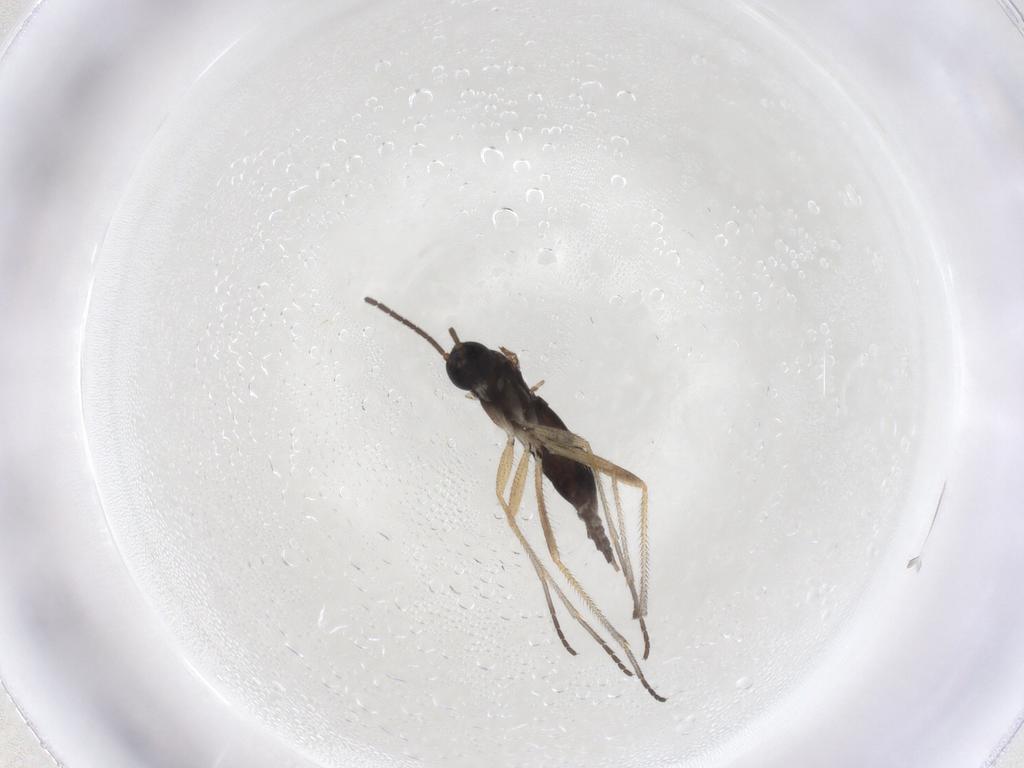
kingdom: Animalia
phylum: Arthropoda
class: Insecta
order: Diptera
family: Sciaridae
